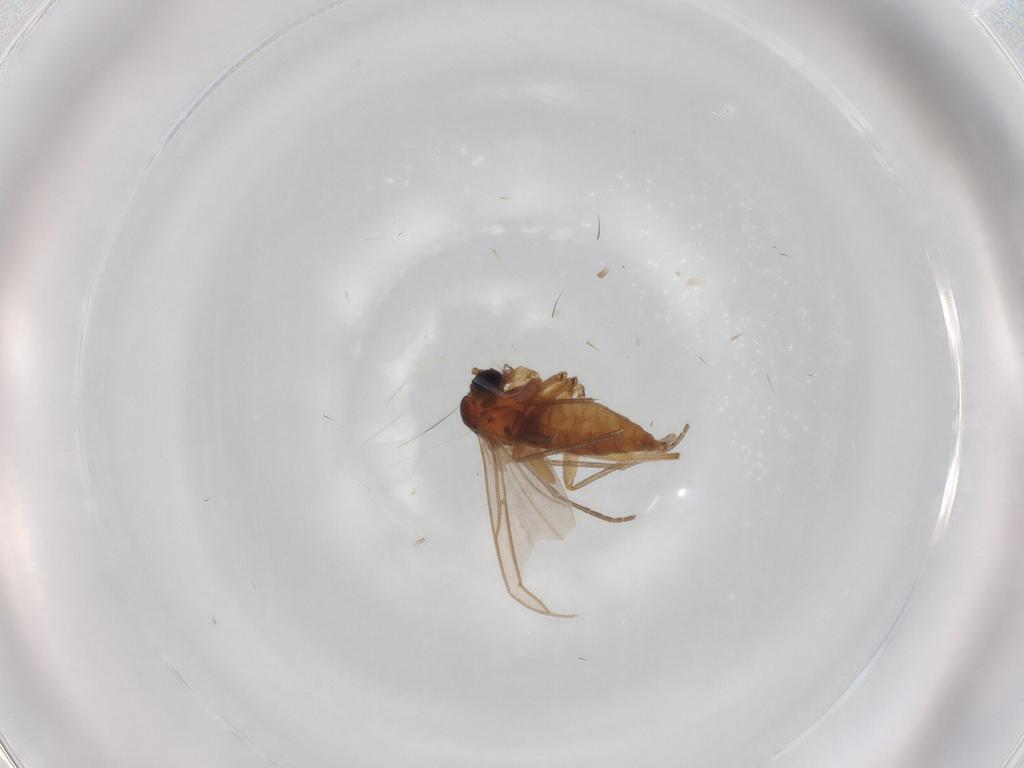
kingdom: Animalia
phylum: Arthropoda
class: Insecta
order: Diptera
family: Sciaridae
